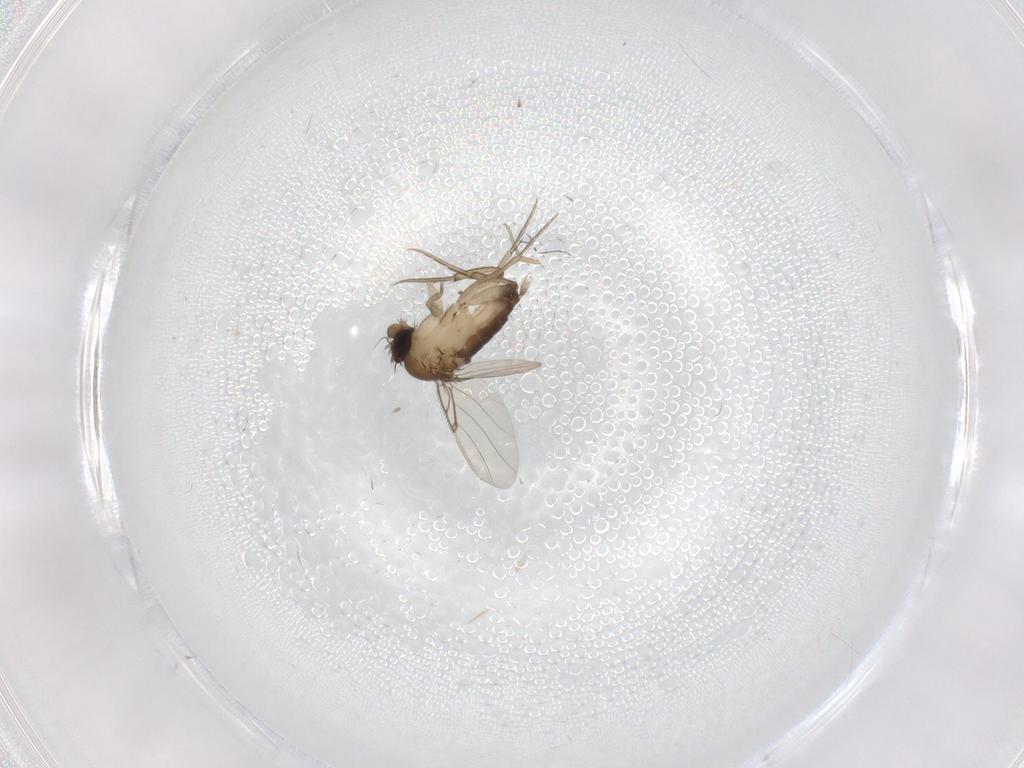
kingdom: Animalia
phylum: Arthropoda
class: Insecta
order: Diptera
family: Phoridae
